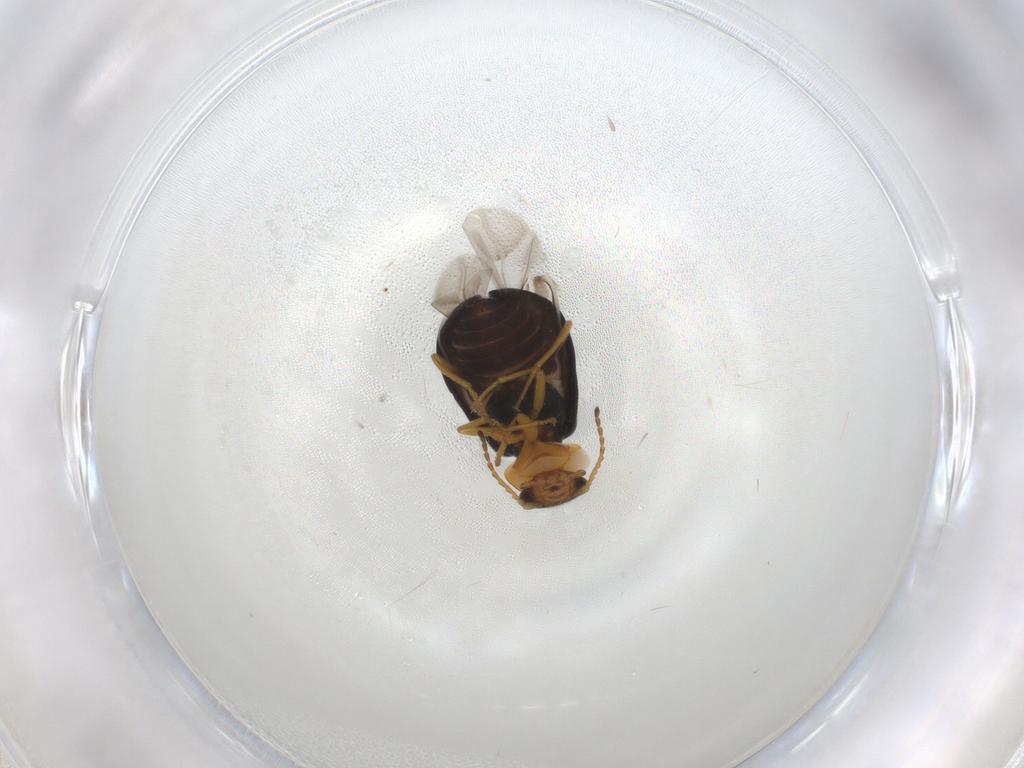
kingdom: Animalia
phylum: Arthropoda
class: Insecta
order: Coleoptera
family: Melyridae
